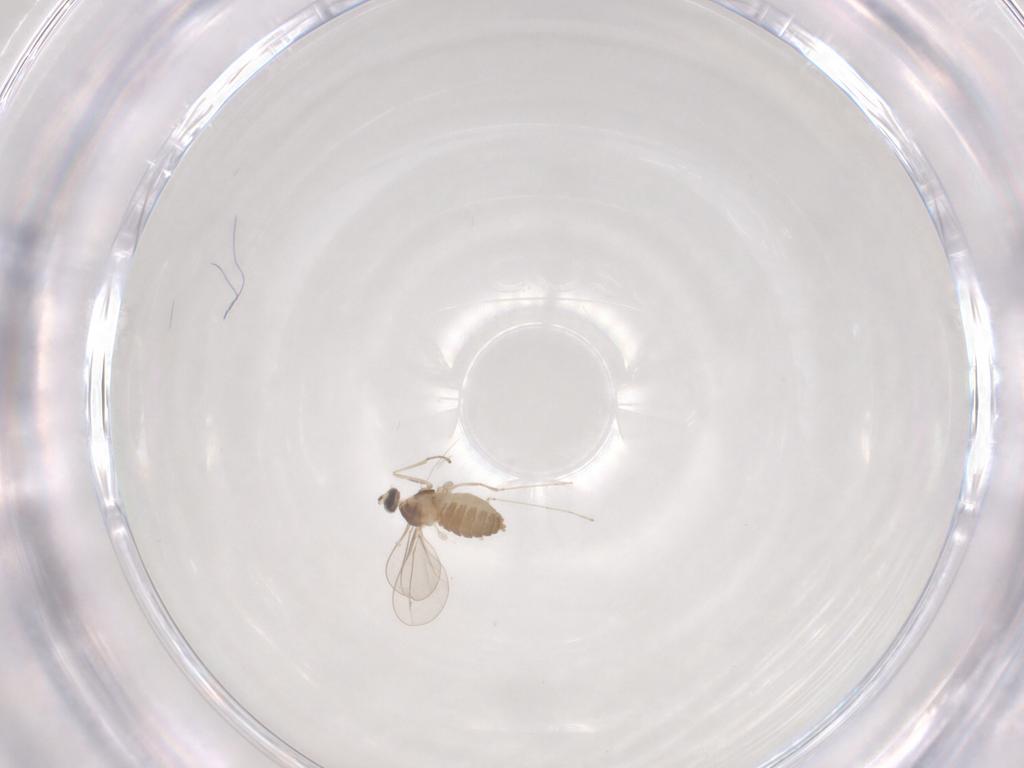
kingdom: Animalia
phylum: Arthropoda
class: Insecta
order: Diptera
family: Cecidomyiidae
